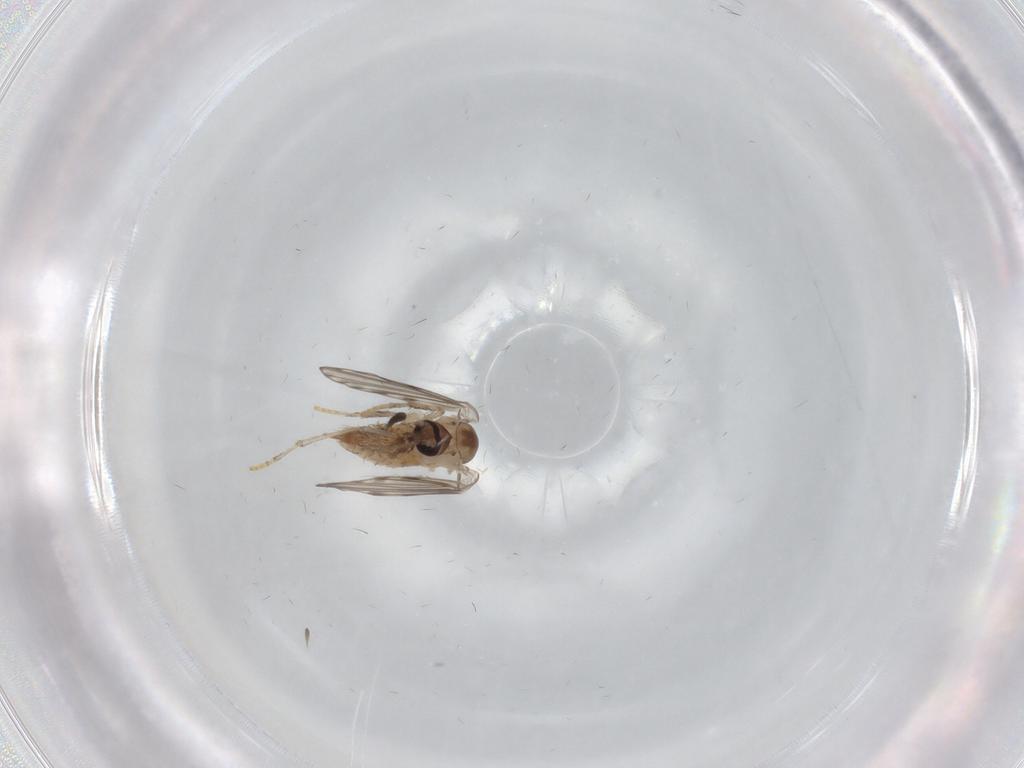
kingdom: Animalia
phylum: Arthropoda
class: Insecta
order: Diptera
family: Psychodidae
